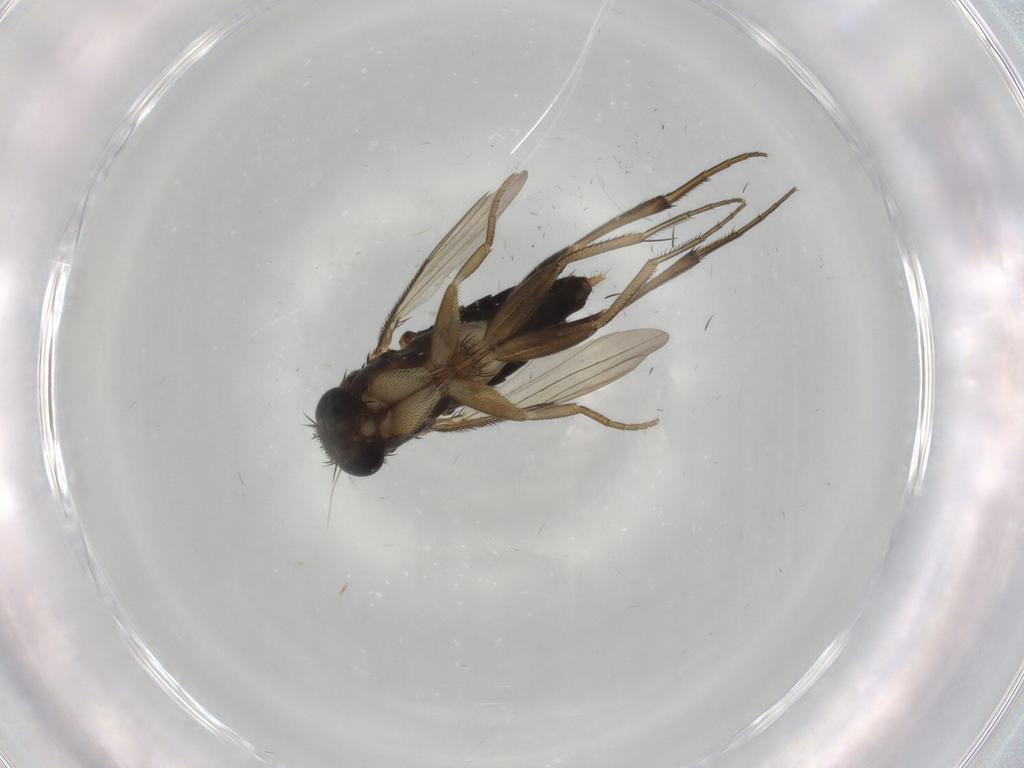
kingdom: Animalia
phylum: Arthropoda
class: Insecta
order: Diptera
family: Phoridae
